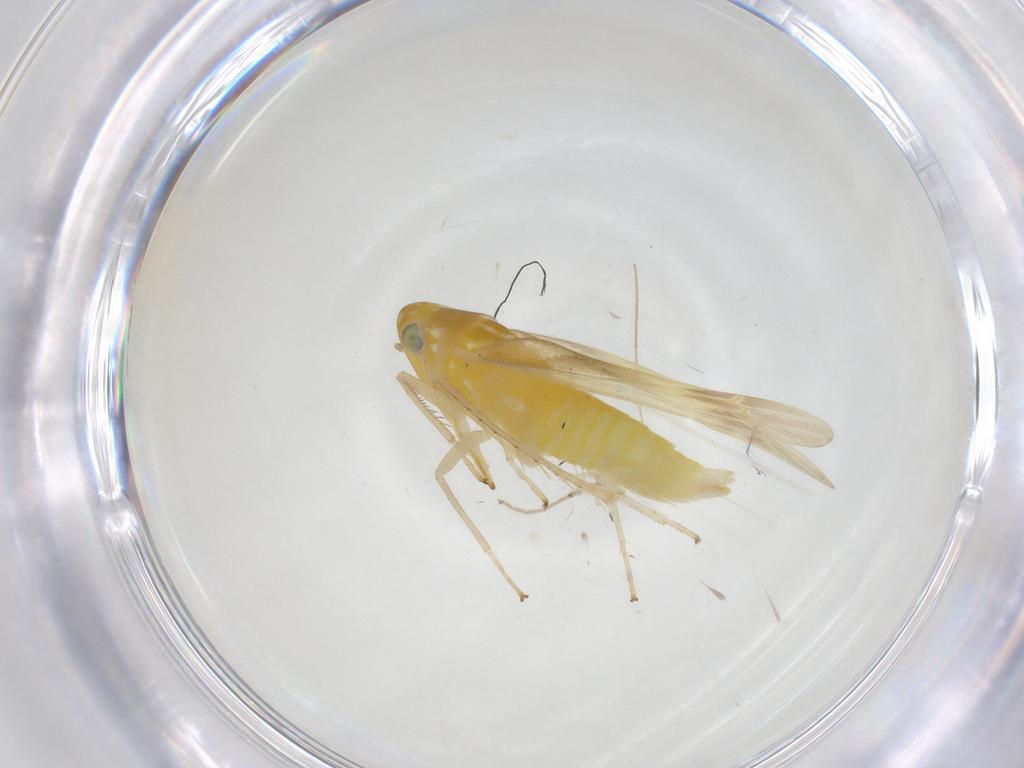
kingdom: Animalia
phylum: Arthropoda
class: Insecta
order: Hemiptera
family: Cicadellidae
